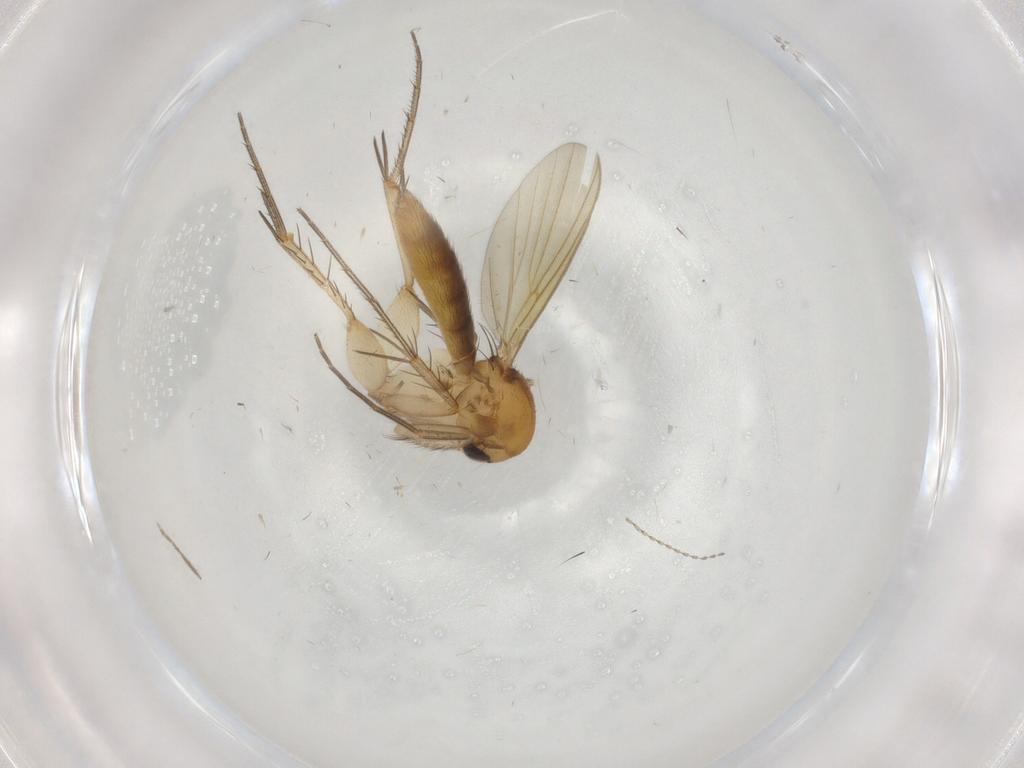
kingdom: Animalia
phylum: Arthropoda
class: Insecta
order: Diptera
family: Mycetophilidae
